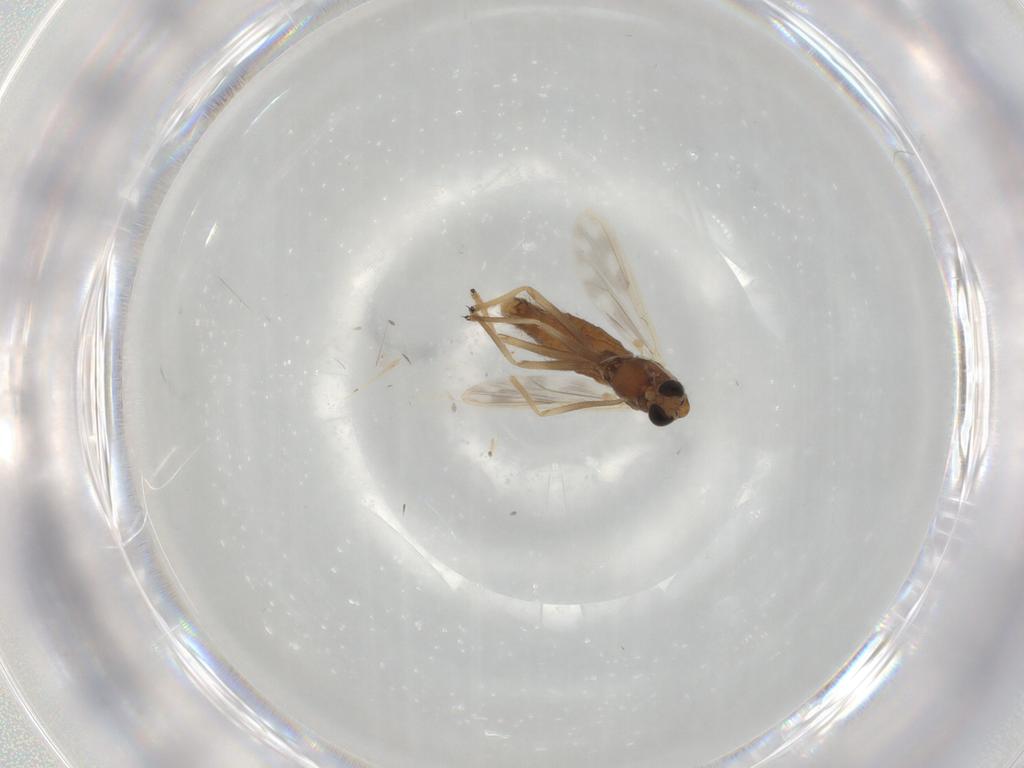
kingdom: Animalia
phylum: Arthropoda
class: Insecta
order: Diptera
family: Chironomidae
